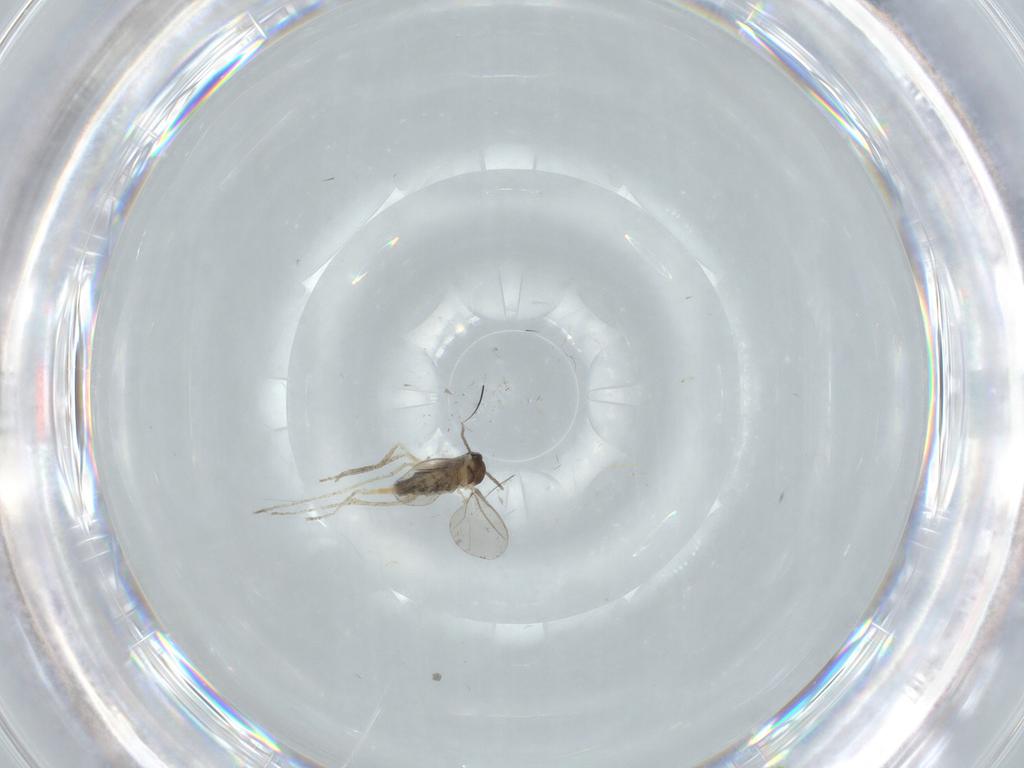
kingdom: Animalia
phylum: Arthropoda
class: Insecta
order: Diptera
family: Cecidomyiidae
